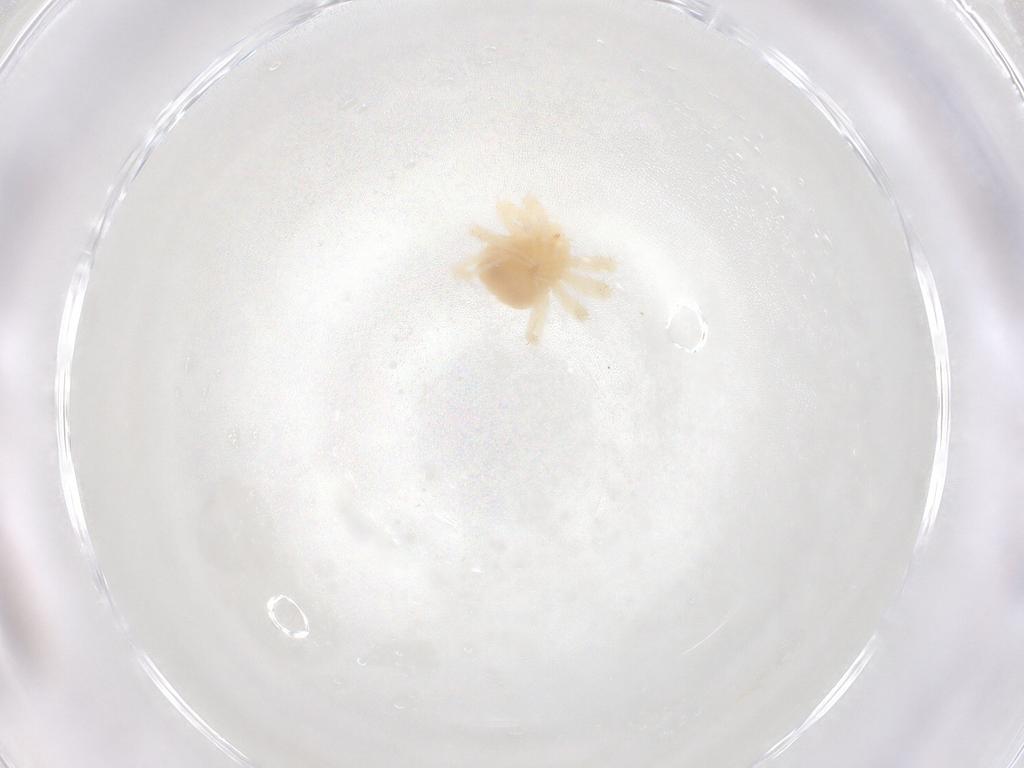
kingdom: Animalia
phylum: Arthropoda
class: Arachnida
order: Trombidiformes
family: Anystidae
